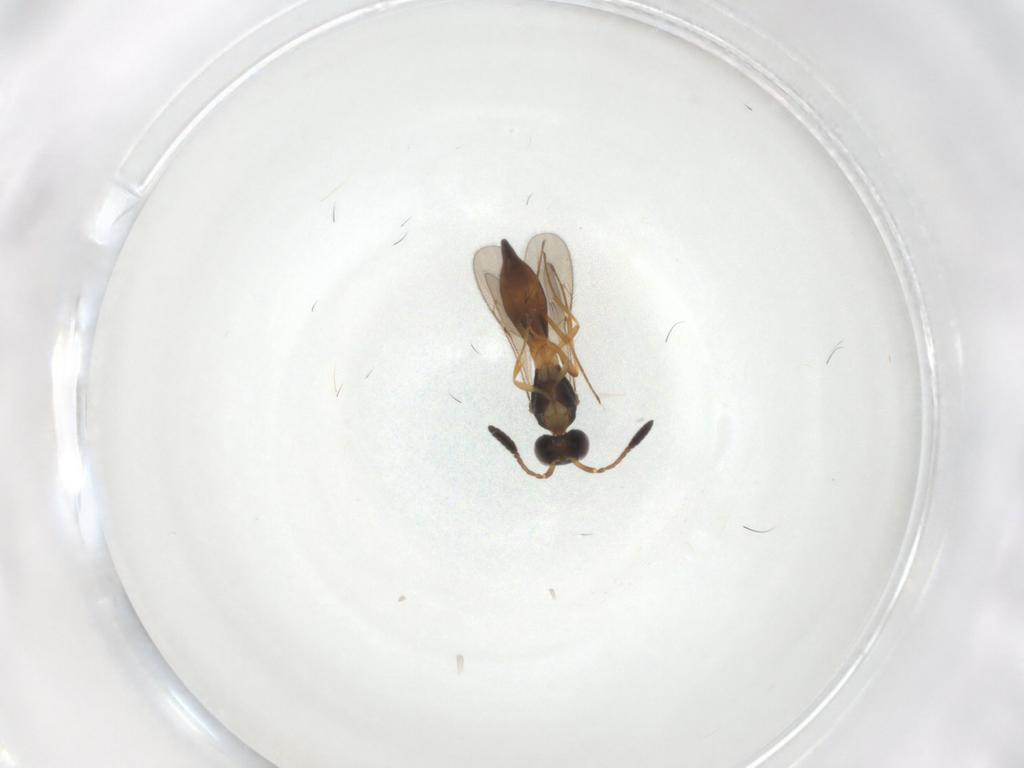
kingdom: Animalia
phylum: Arthropoda
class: Insecta
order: Hymenoptera
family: Scelionidae
